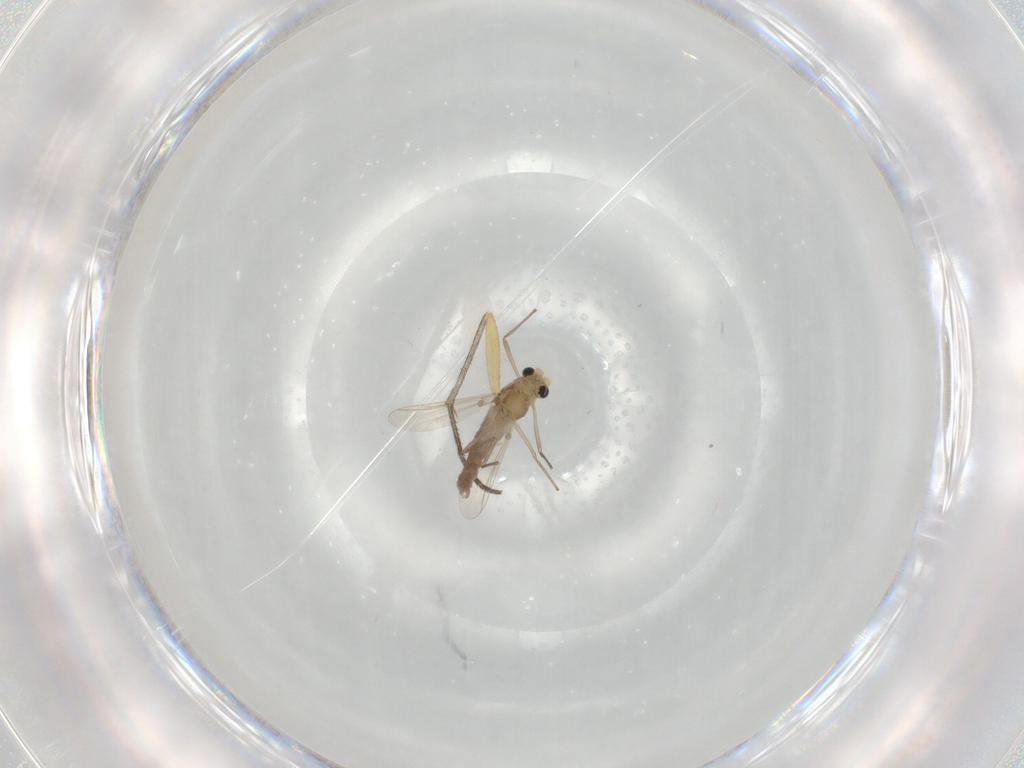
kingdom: Animalia
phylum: Arthropoda
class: Insecta
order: Diptera
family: Chironomidae
